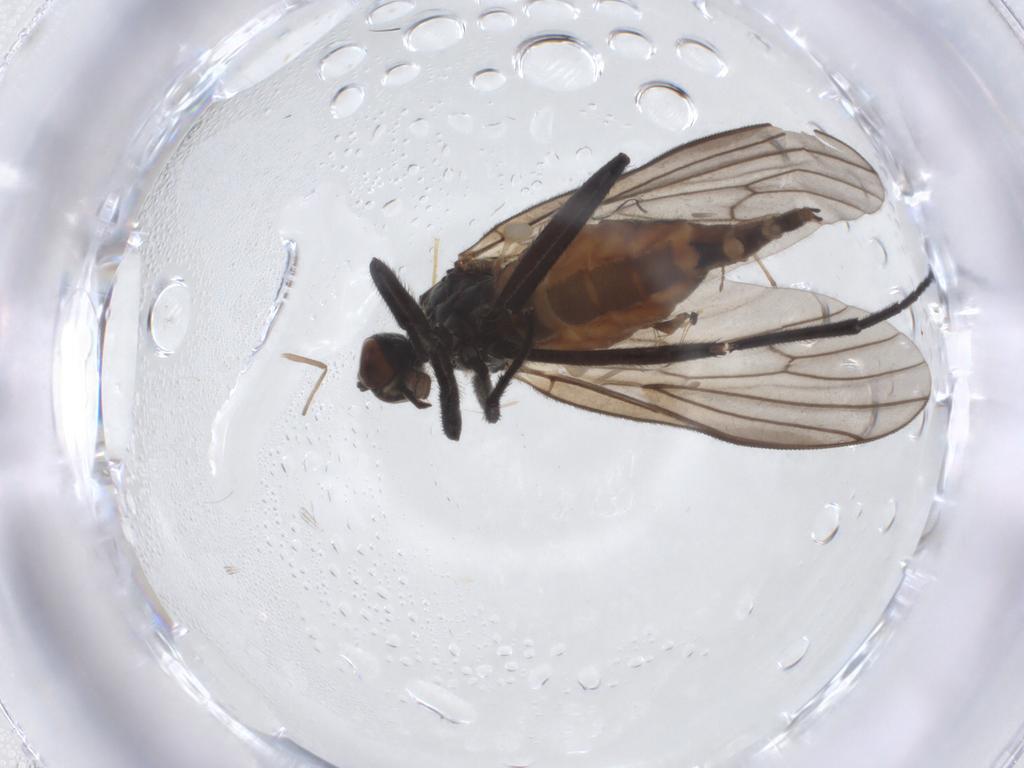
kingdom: Animalia
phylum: Arthropoda
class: Insecta
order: Diptera
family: Empididae
